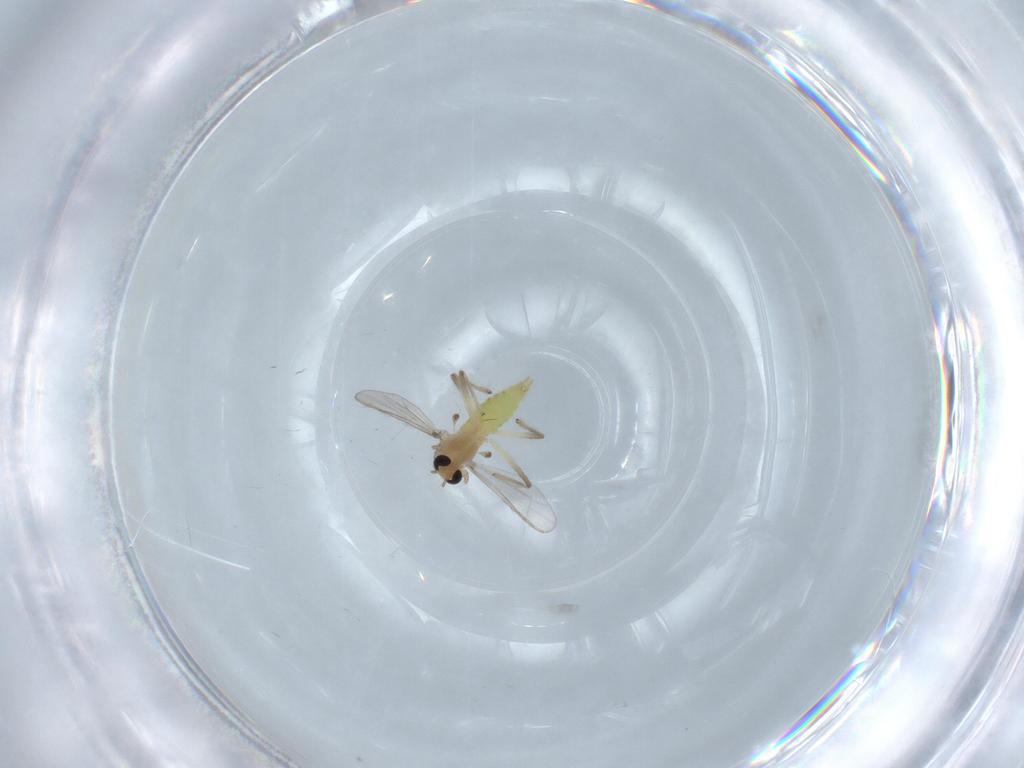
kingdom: Animalia
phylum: Arthropoda
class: Insecta
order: Diptera
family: Chironomidae
